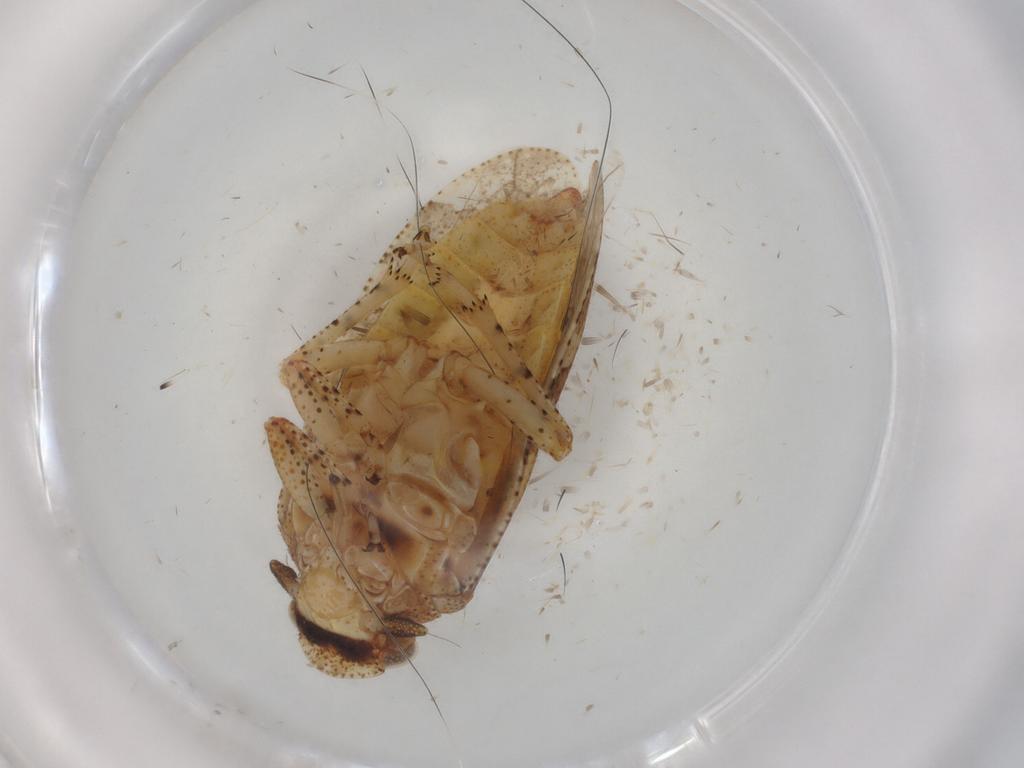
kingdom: Animalia
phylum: Arthropoda
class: Insecta
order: Hemiptera
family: Tettigometridae
